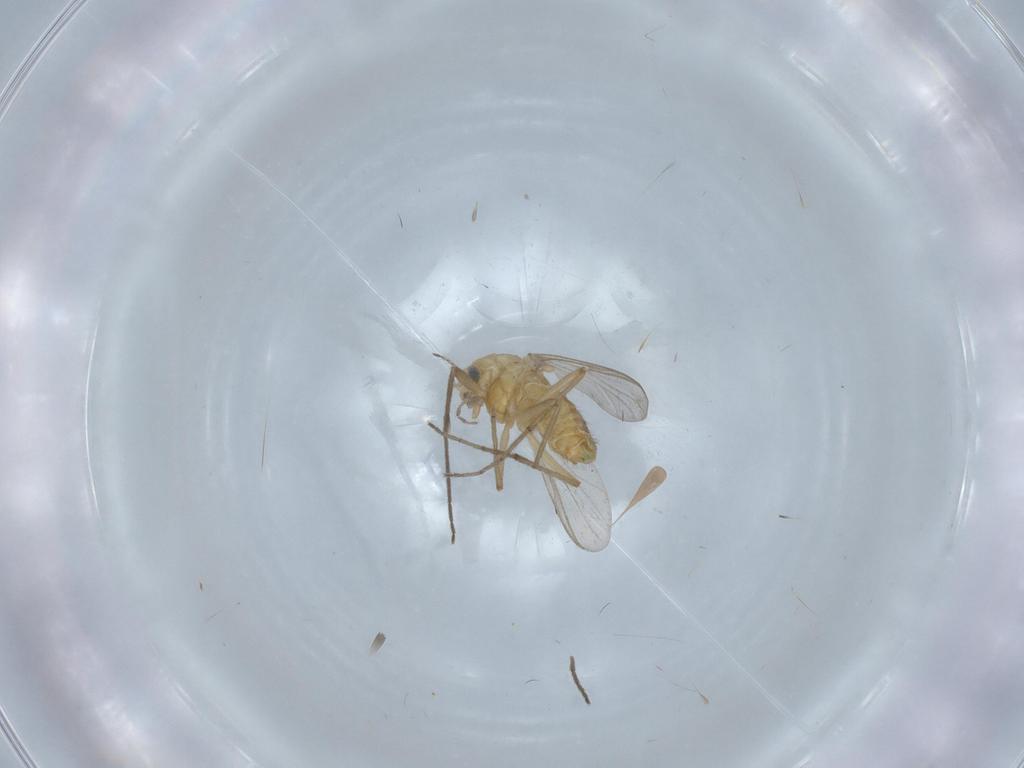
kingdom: Animalia
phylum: Arthropoda
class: Insecta
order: Diptera
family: Chironomidae
